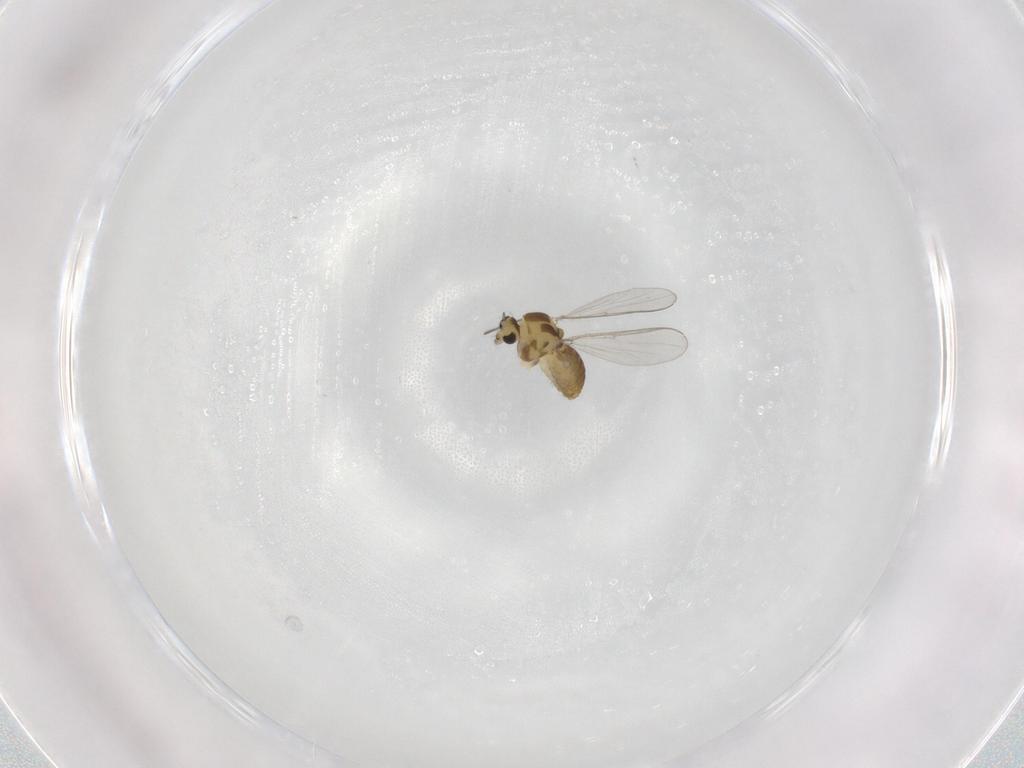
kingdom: Animalia
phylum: Arthropoda
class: Insecta
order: Diptera
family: Chironomidae
